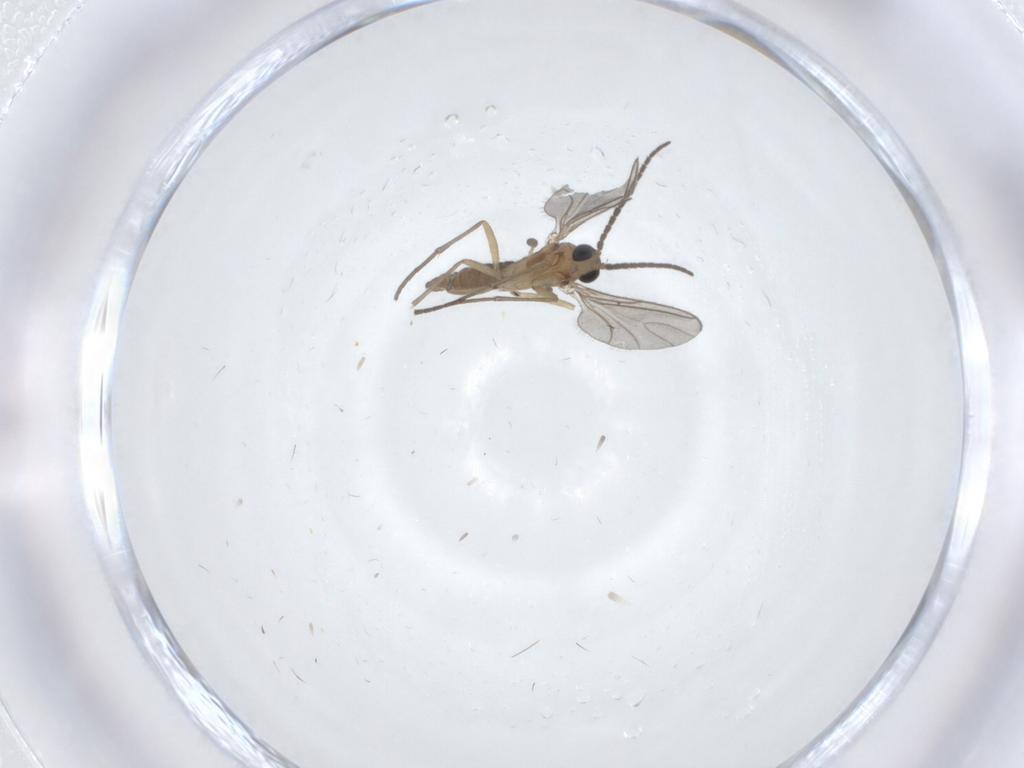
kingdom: Animalia
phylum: Arthropoda
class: Insecta
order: Diptera
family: Sciaridae
